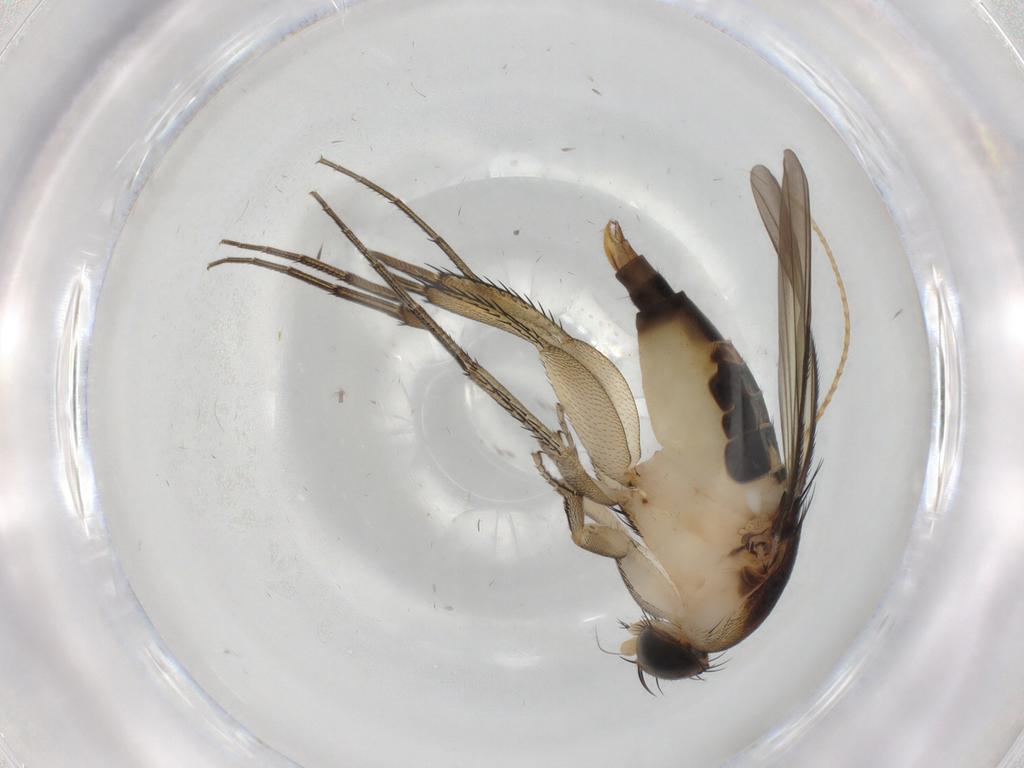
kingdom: Animalia
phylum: Arthropoda
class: Insecta
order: Diptera
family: Phoridae
